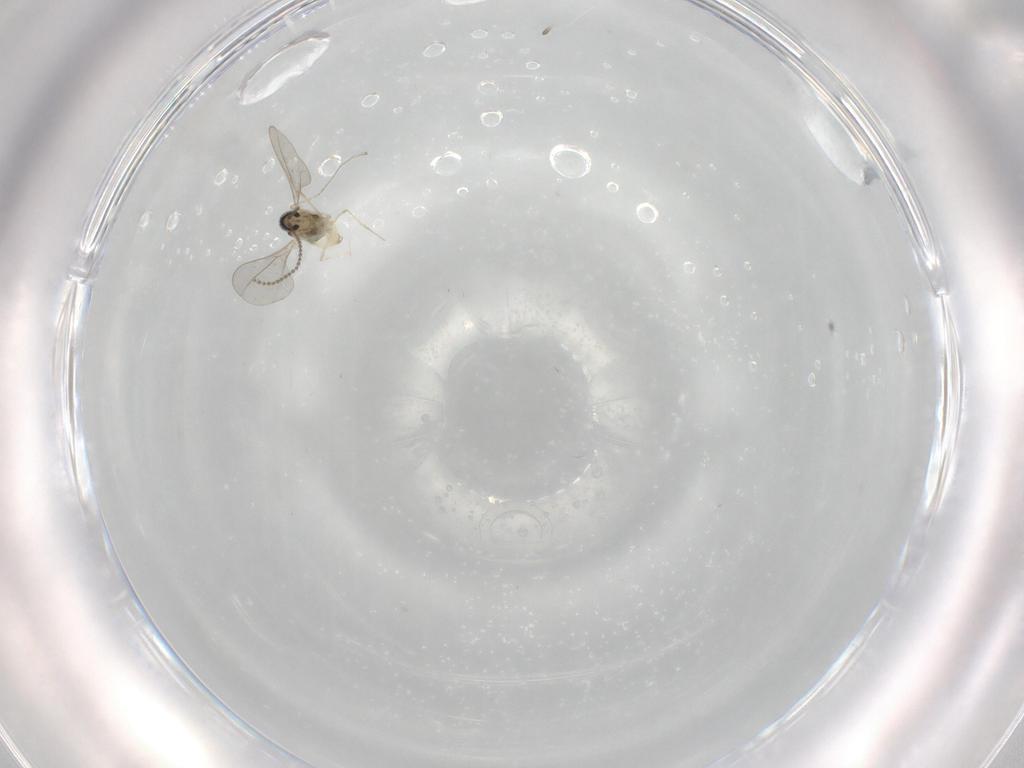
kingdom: Animalia
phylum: Arthropoda
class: Insecta
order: Diptera
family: Cecidomyiidae
